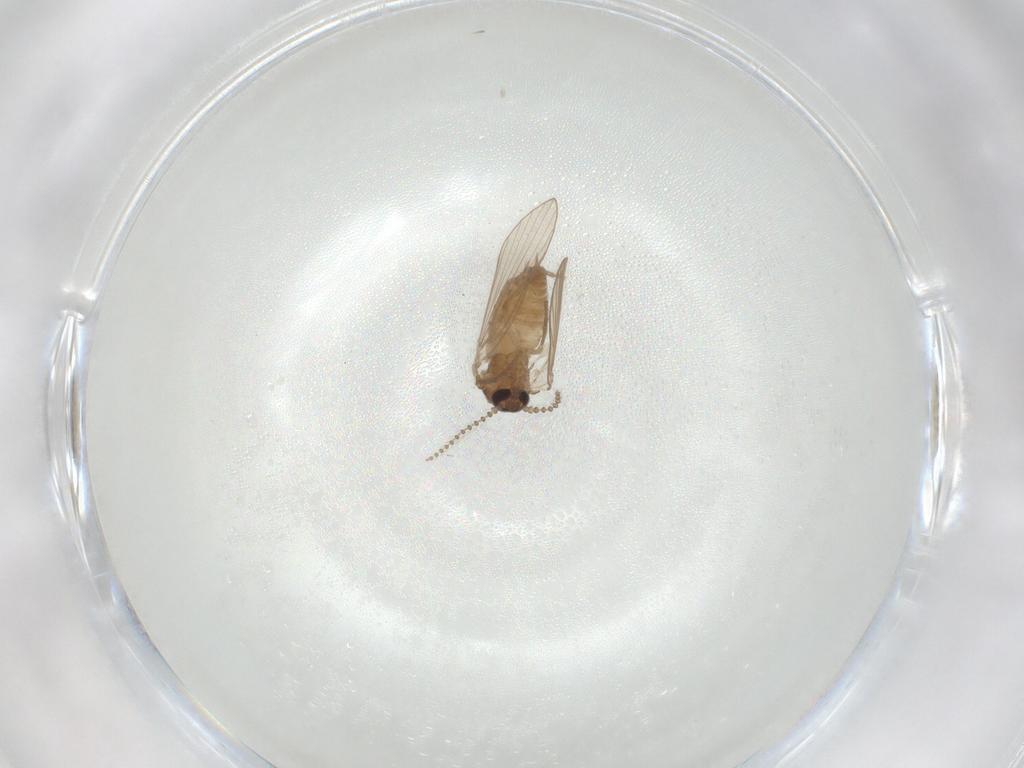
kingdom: Animalia
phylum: Arthropoda
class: Insecta
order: Diptera
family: Psychodidae
